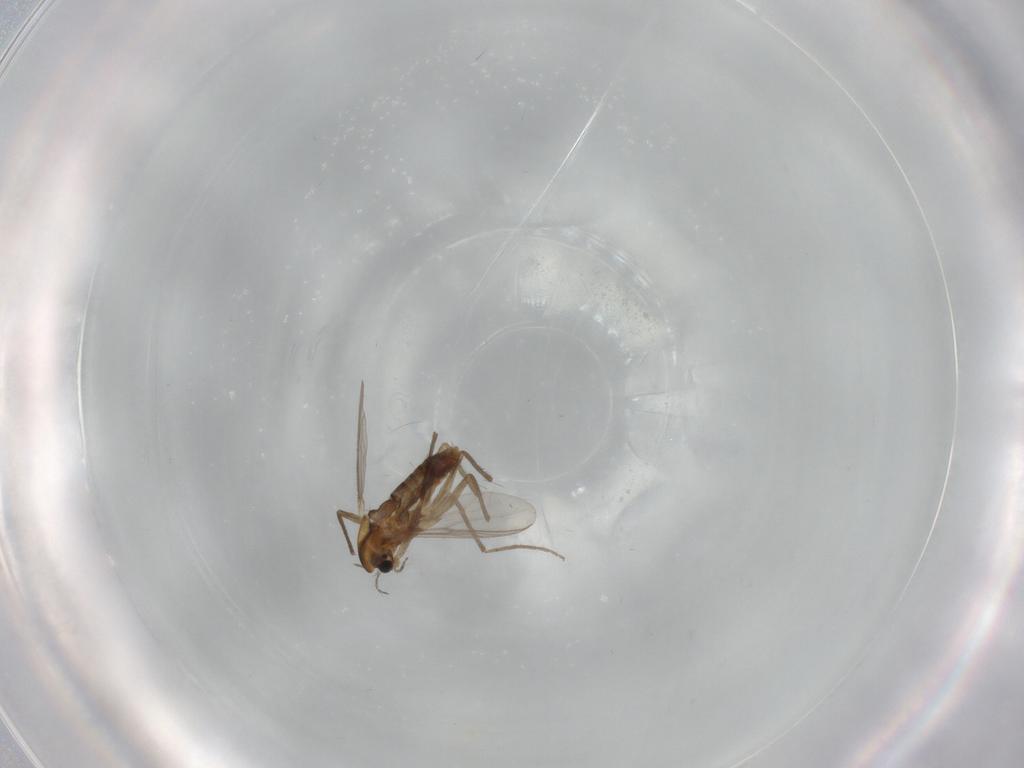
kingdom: Animalia
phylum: Arthropoda
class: Insecta
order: Diptera
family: Chironomidae
